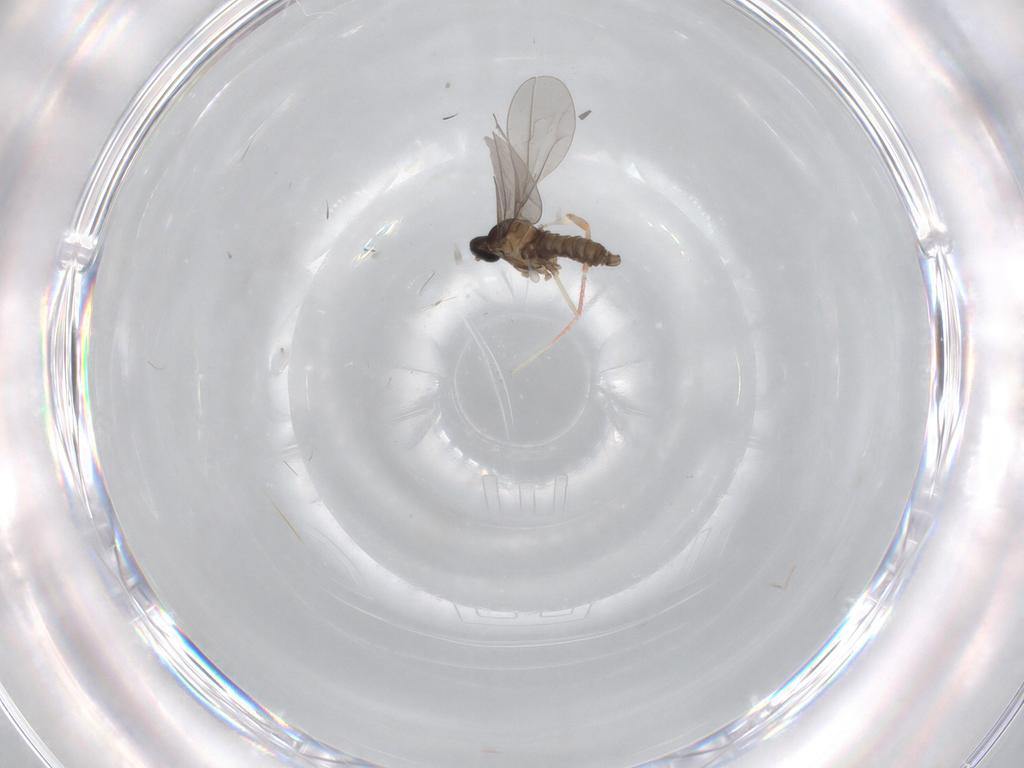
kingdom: Animalia
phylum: Arthropoda
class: Insecta
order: Diptera
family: Cecidomyiidae
